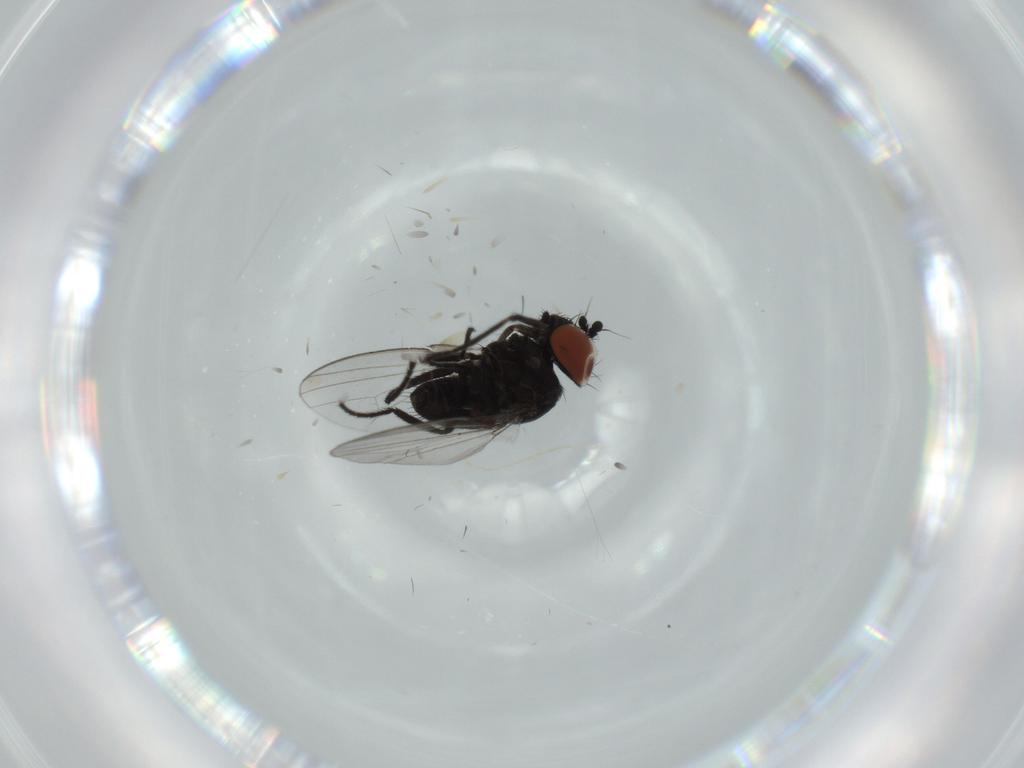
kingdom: Animalia
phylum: Arthropoda
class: Insecta
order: Diptera
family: Milichiidae
